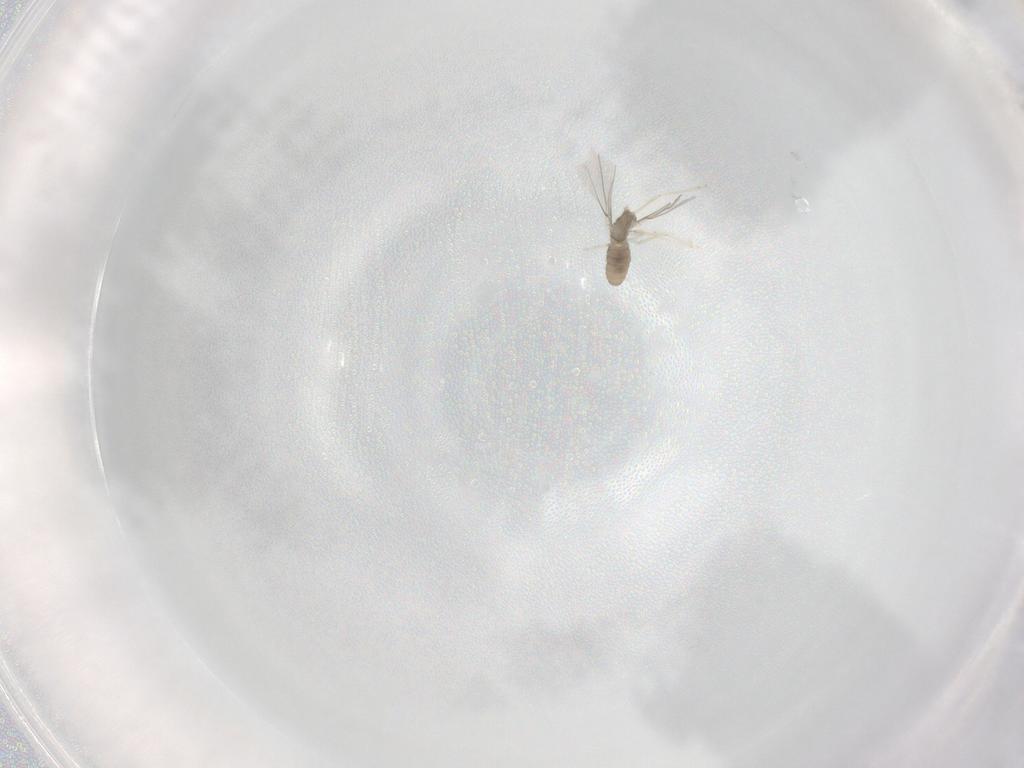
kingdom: Animalia
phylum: Arthropoda
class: Insecta
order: Diptera
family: Cecidomyiidae
